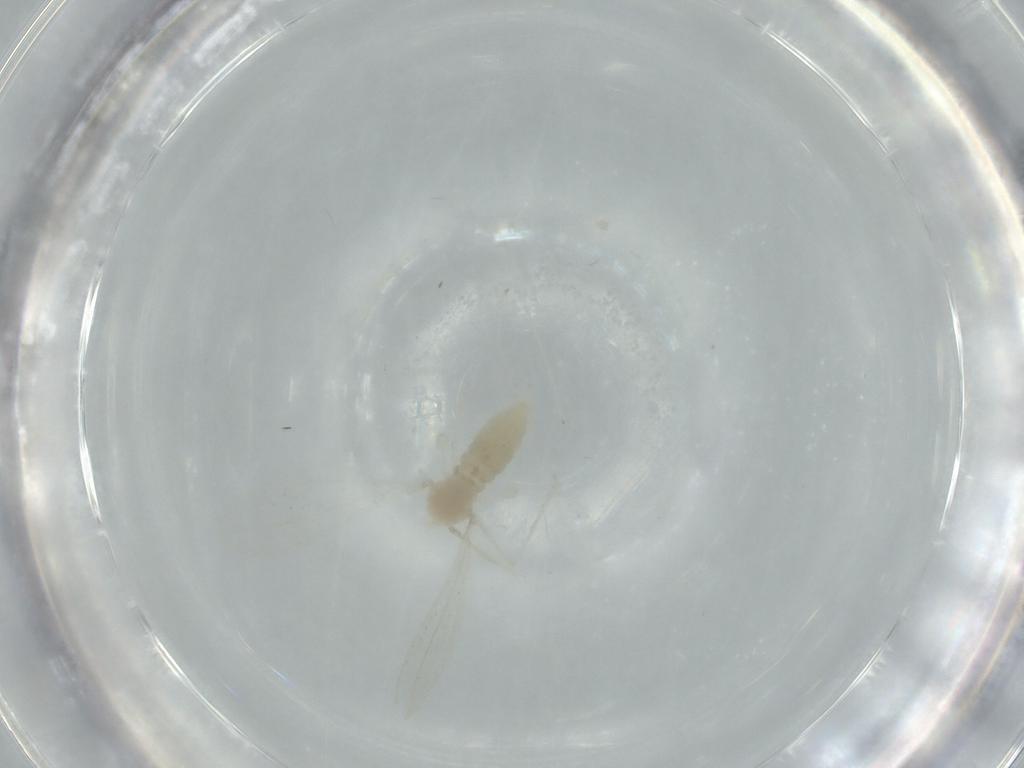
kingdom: Animalia
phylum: Arthropoda
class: Insecta
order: Diptera
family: Cecidomyiidae
